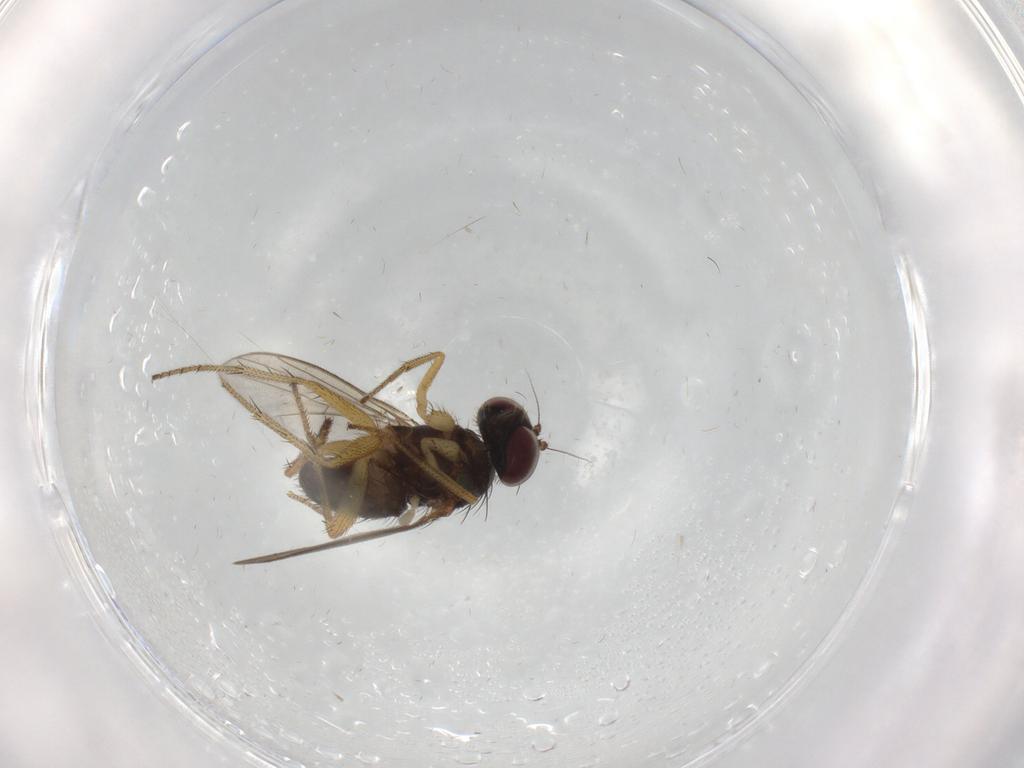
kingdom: Animalia
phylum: Arthropoda
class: Insecta
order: Diptera
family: Dolichopodidae
